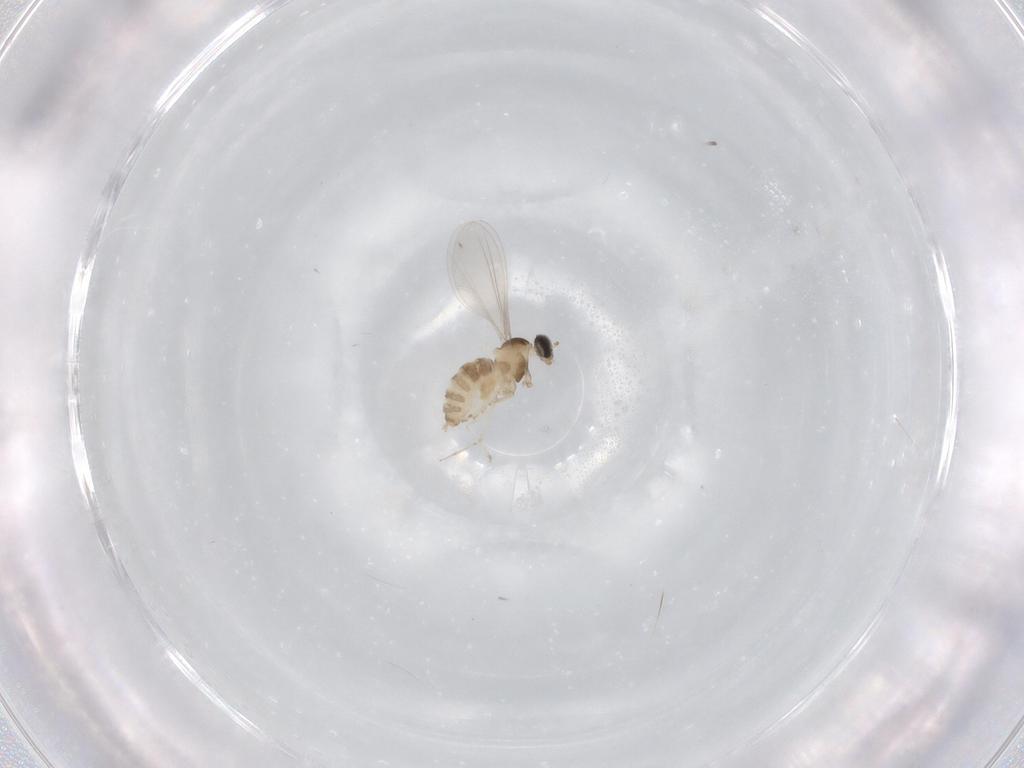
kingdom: Animalia
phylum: Arthropoda
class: Insecta
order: Diptera
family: Cecidomyiidae
